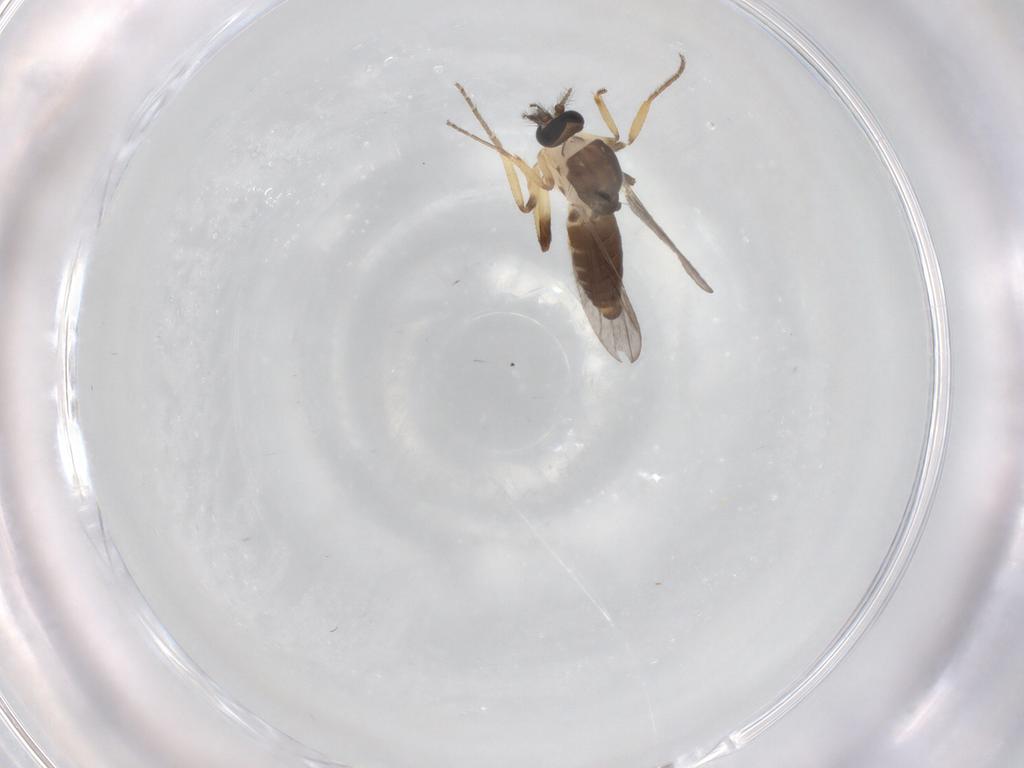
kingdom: Animalia
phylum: Arthropoda
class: Insecta
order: Diptera
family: Ceratopogonidae
